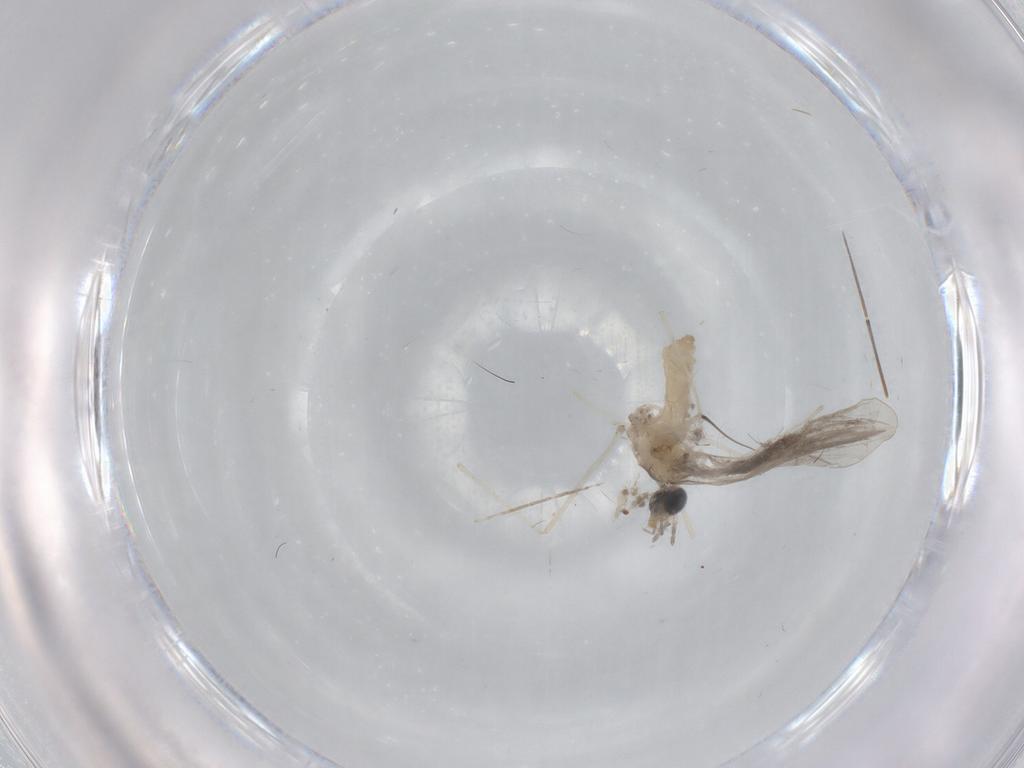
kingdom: Animalia
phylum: Arthropoda
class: Insecta
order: Diptera
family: Cecidomyiidae
